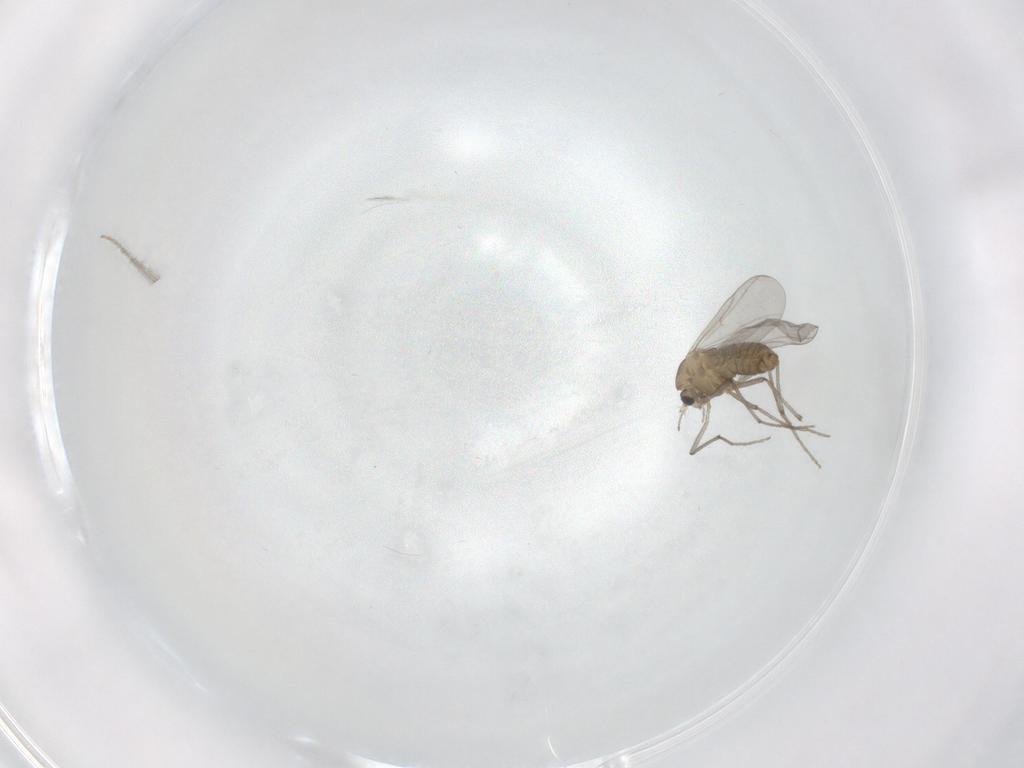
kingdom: Animalia
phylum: Arthropoda
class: Insecta
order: Diptera
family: Chironomidae
